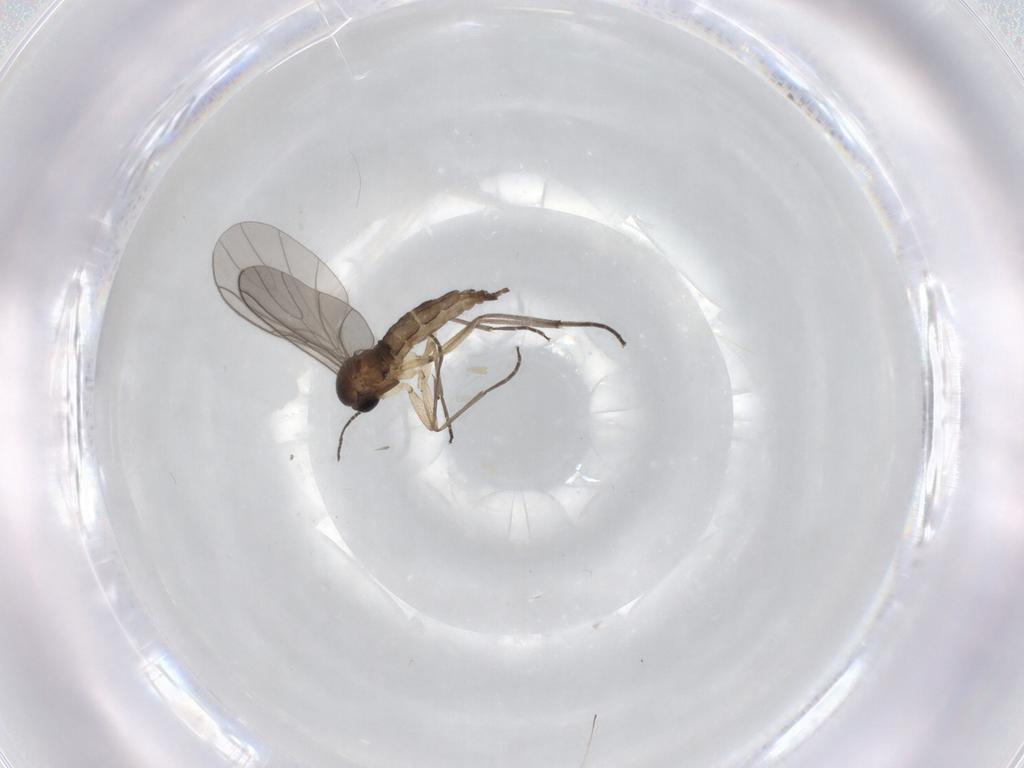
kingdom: Animalia
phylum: Arthropoda
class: Insecta
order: Diptera
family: Sciaridae
